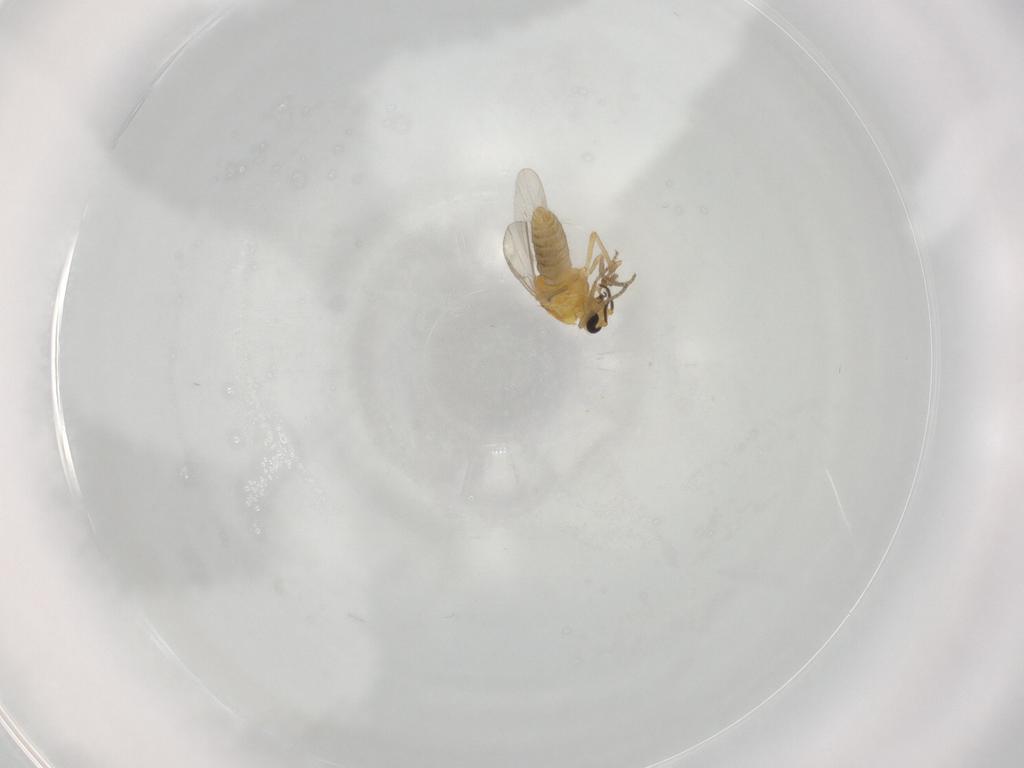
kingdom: Animalia
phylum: Arthropoda
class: Insecta
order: Diptera
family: Ceratopogonidae
